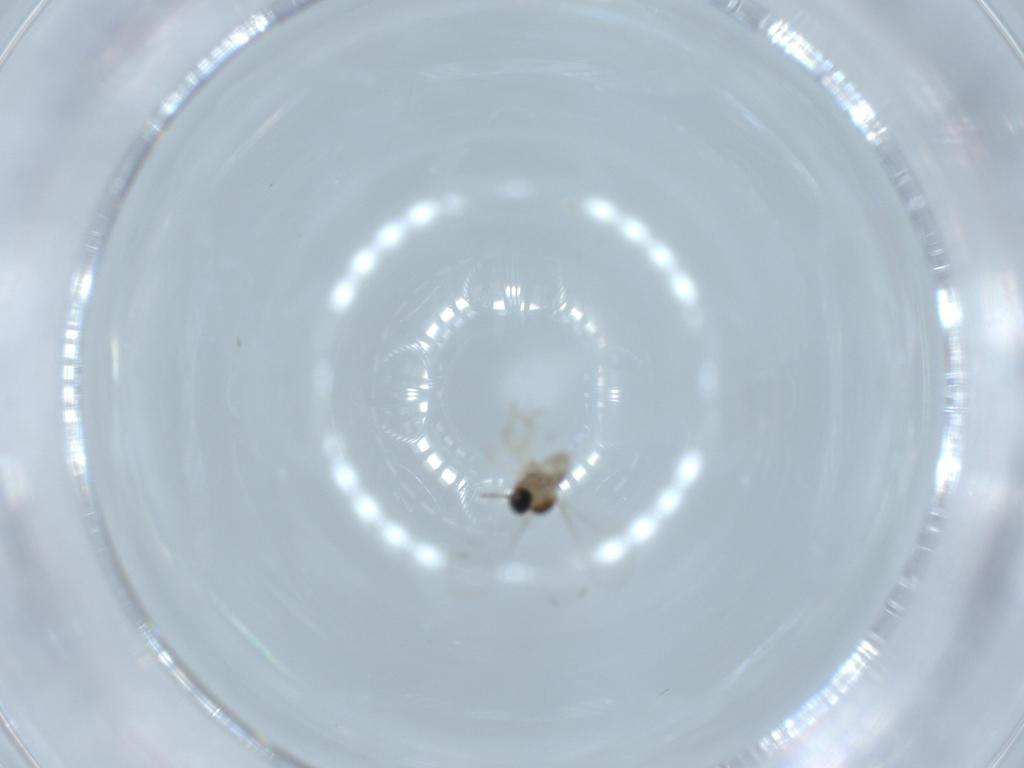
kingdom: Animalia
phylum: Arthropoda
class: Insecta
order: Diptera
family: Cecidomyiidae
